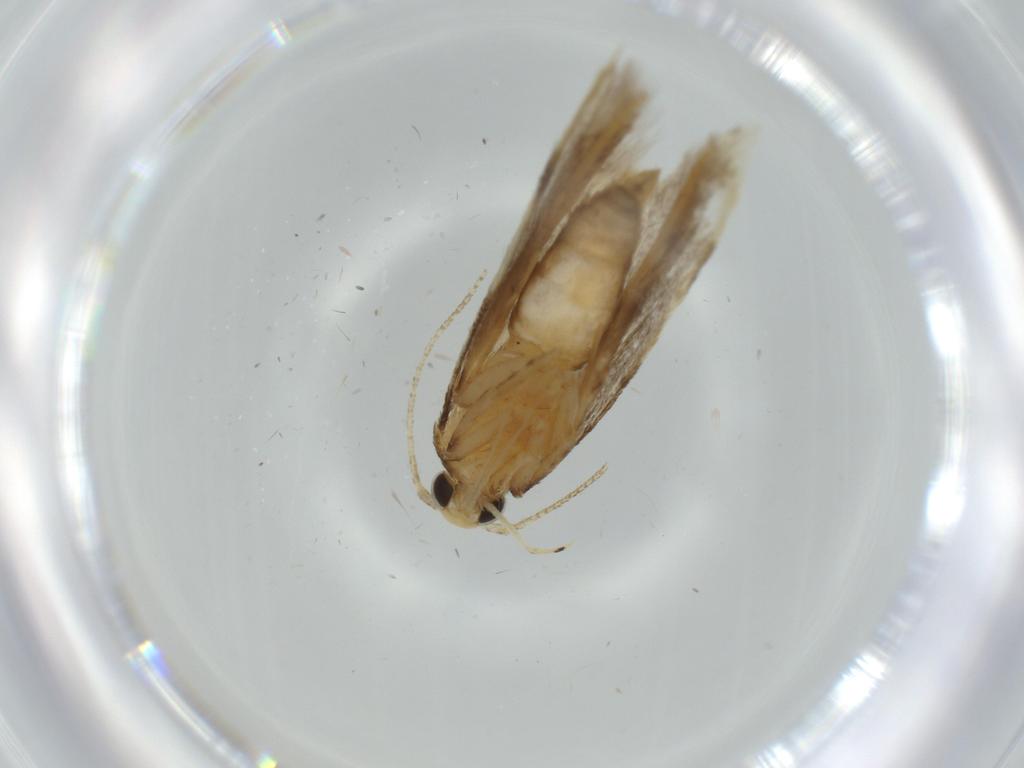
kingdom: Animalia
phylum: Arthropoda
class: Insecta
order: Lepidoptera
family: Autostichidae
